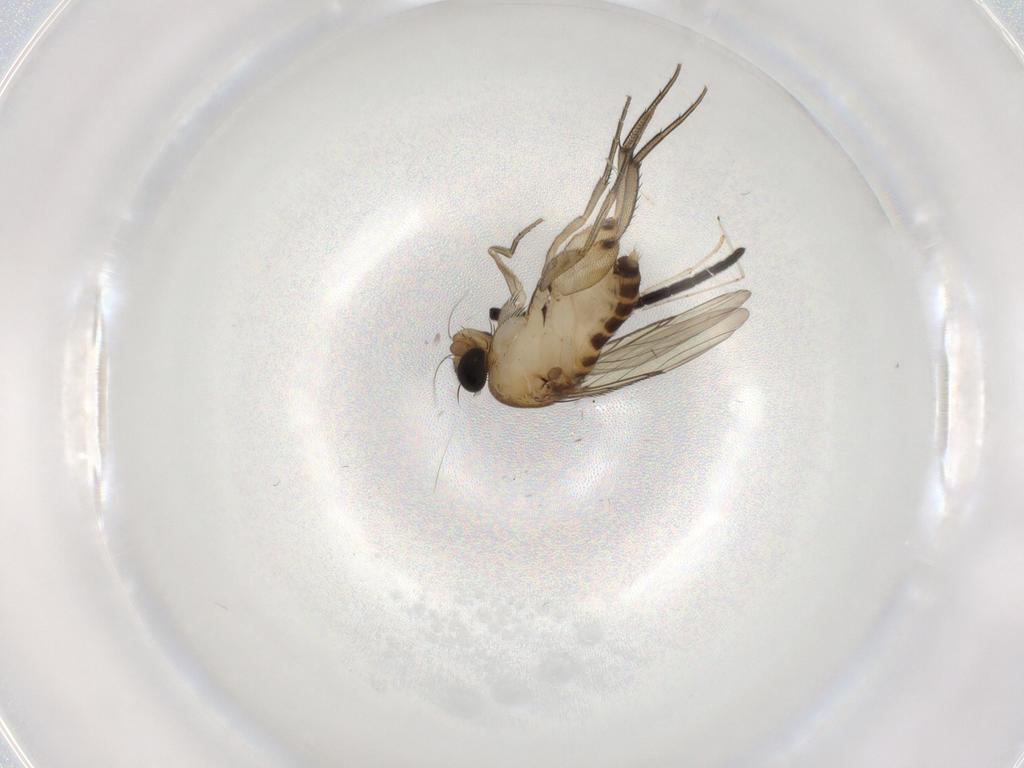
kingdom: Animalia
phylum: Arthropoda
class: Insecta
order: Diptera
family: Phoridae
